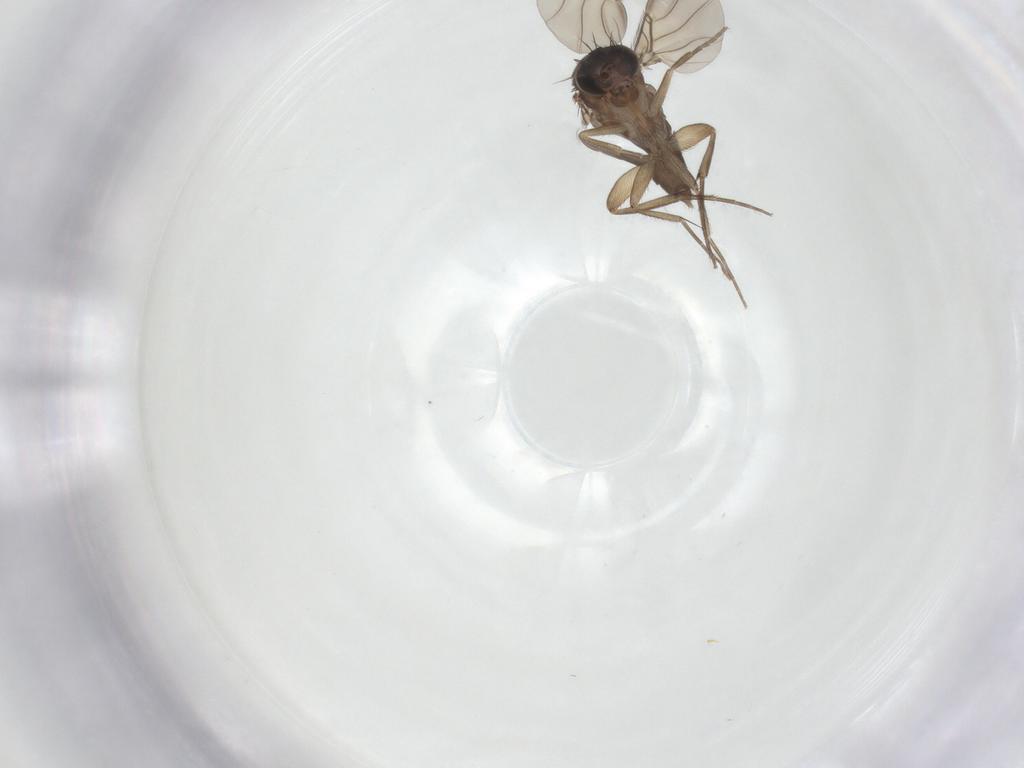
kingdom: Animalia
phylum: Arthropoda
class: Insecta
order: Diptera
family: Phoridae
